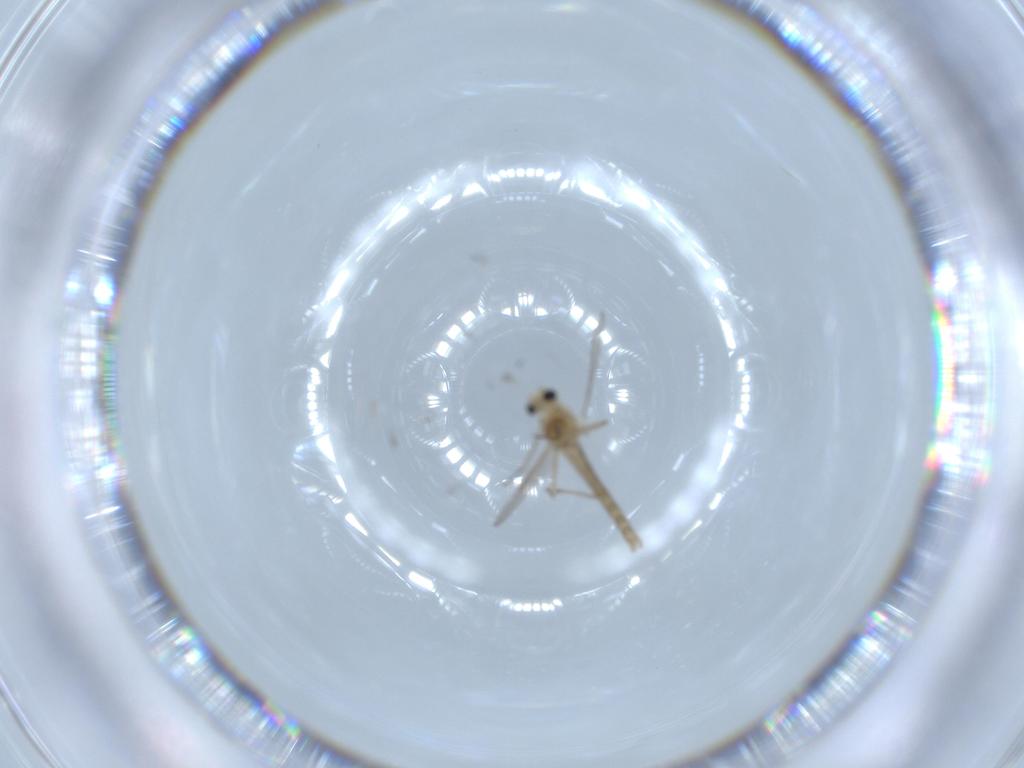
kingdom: Animalia
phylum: Arthropoda
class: Insecta
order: Diptera
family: Chironomidae
